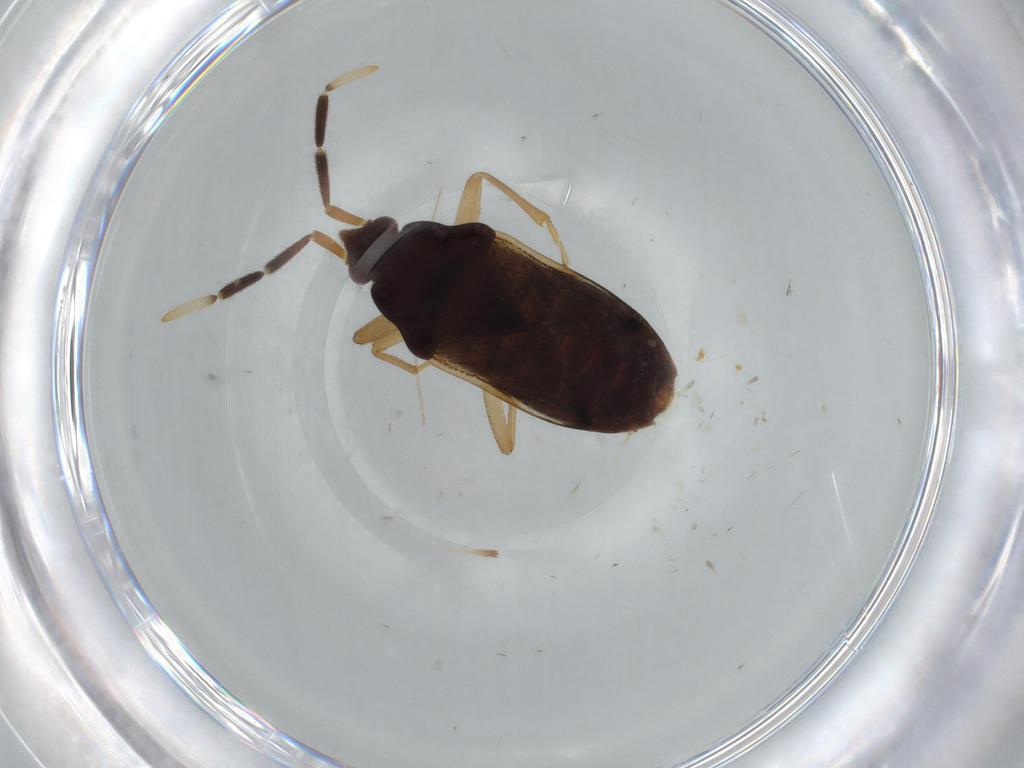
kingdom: Animalia
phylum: Arthropoda
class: Insecta
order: Hemiptera
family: Rhyparochromidae
